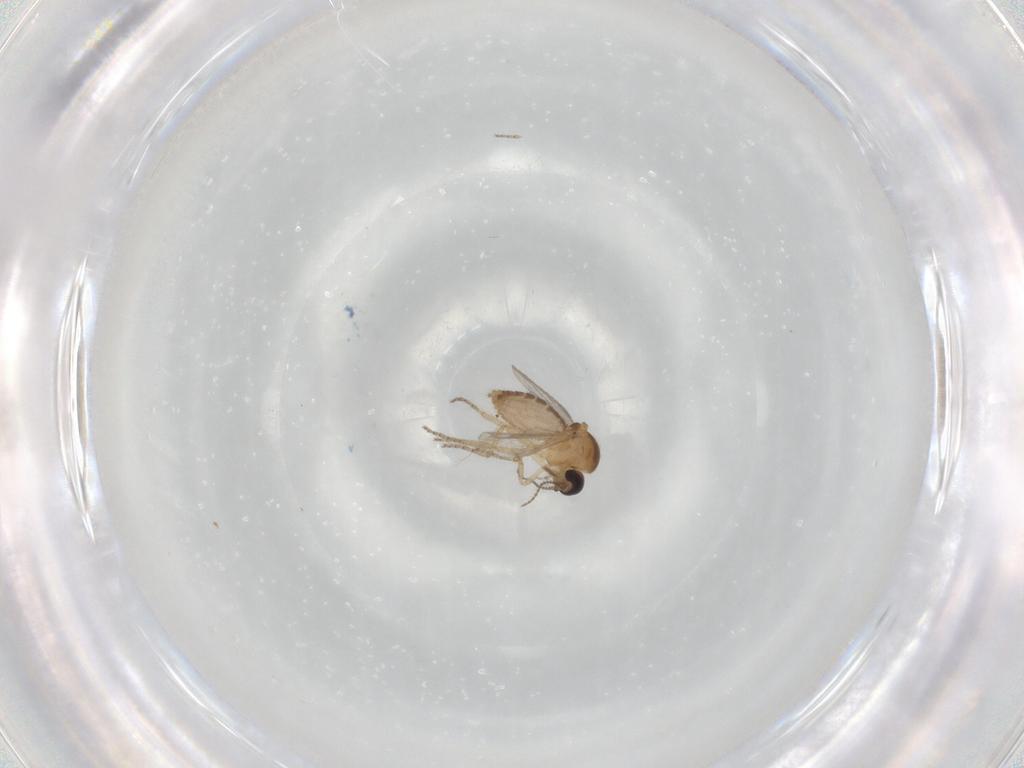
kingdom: Animalia
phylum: Arthropoda
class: Insecta
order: Diptera
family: Ceratopogonidae
